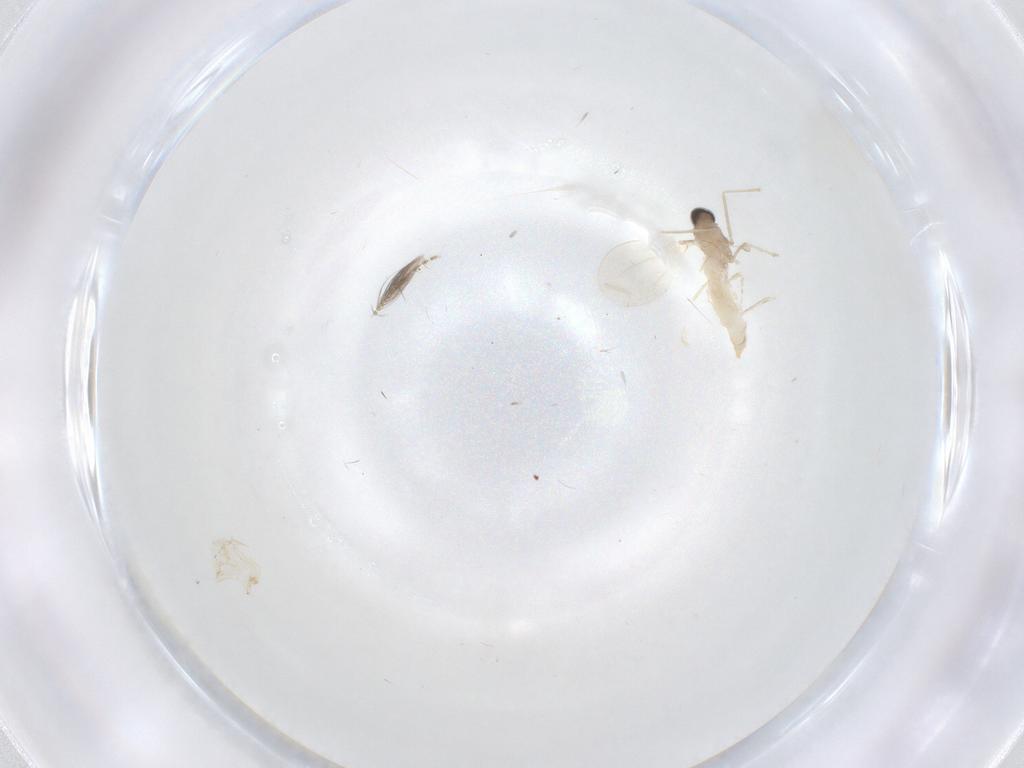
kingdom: Animalia
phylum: Arthropoda
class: Insecta
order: Diptera
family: Cecidomyiidae
